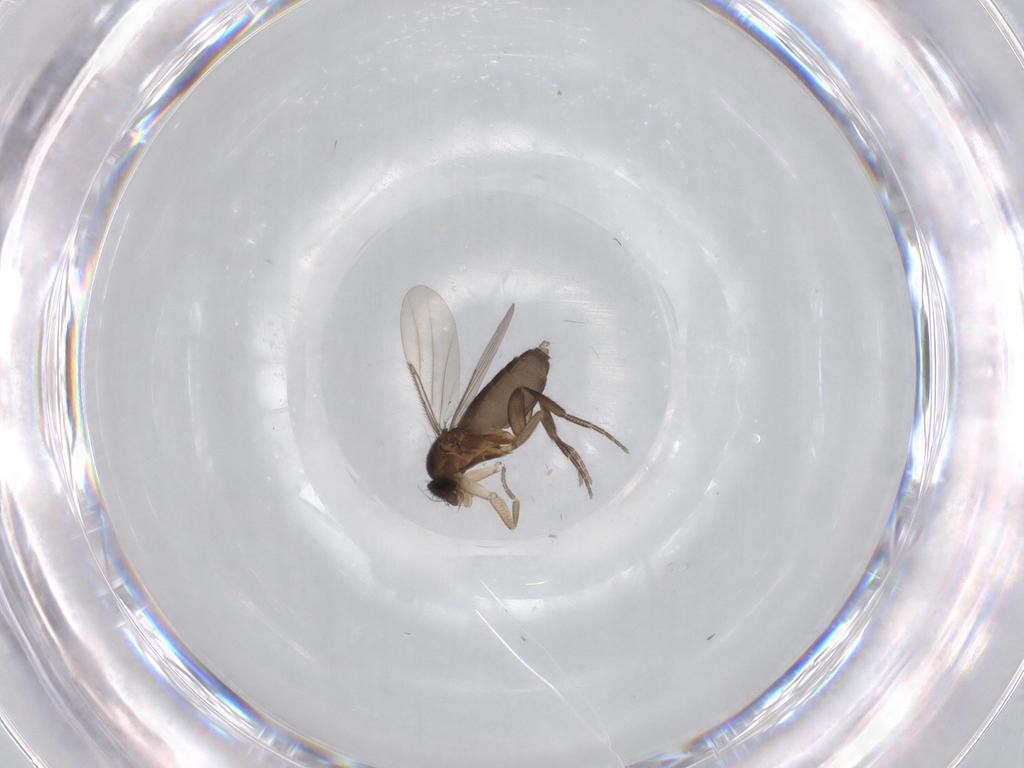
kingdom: Animalia
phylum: Arthropoda
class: Insecta
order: Diptera
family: Phoridae
